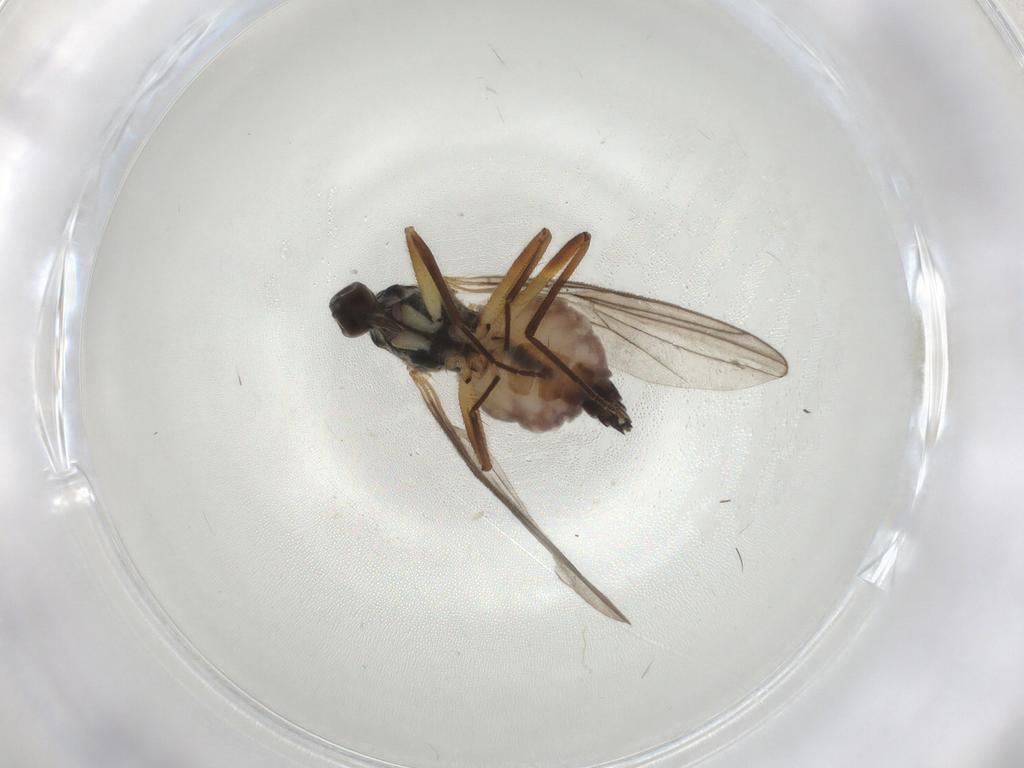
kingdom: Animalia
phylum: Arthropoda
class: Insecta
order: Diptera
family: Hybotidae
